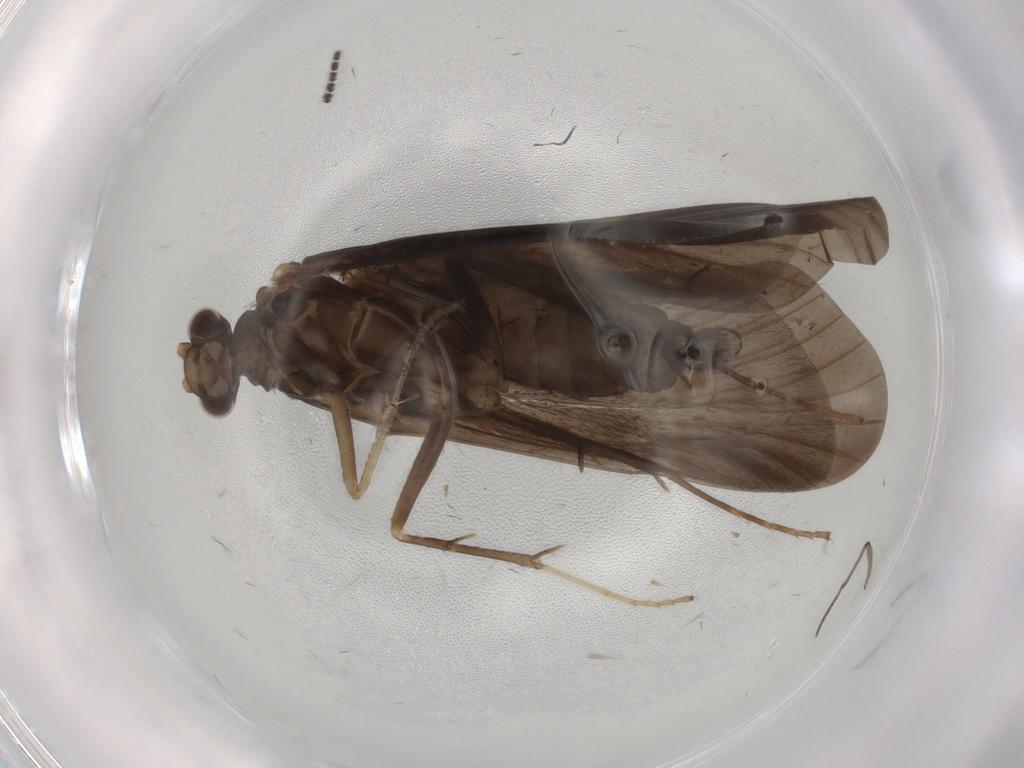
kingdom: Animalia
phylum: Arthropoda
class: Insecta
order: Trichoptera
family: Hydropsychidae
